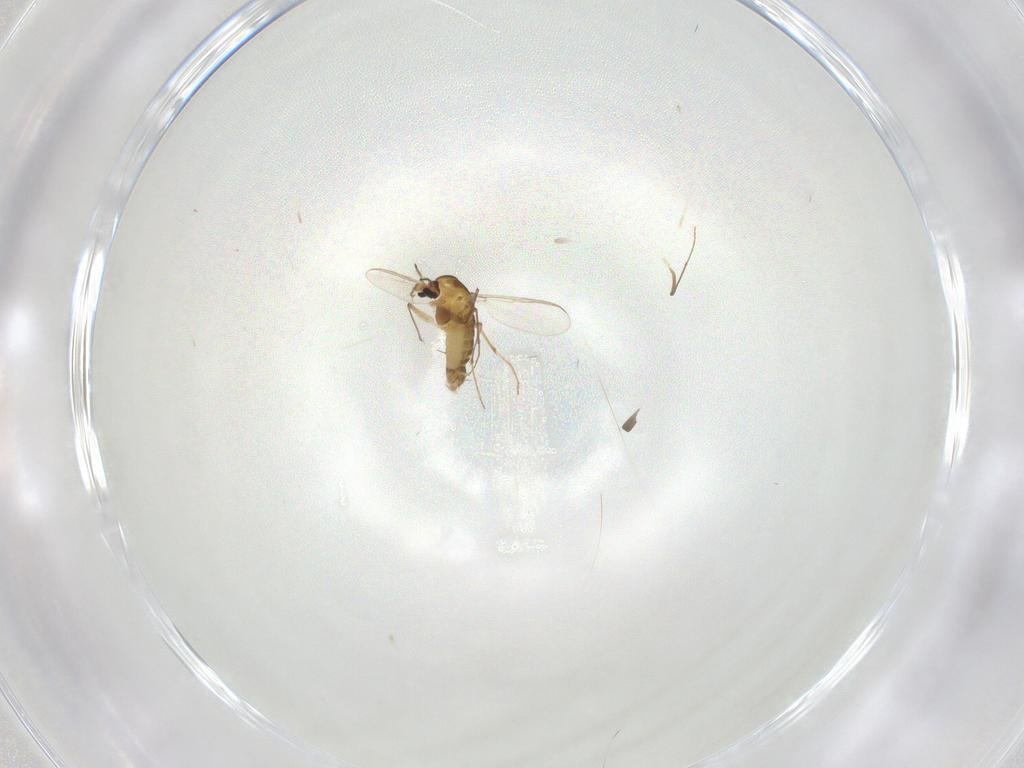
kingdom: Animalia
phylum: Arthropoda
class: Insecta
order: Diptera
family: Chironomidae
